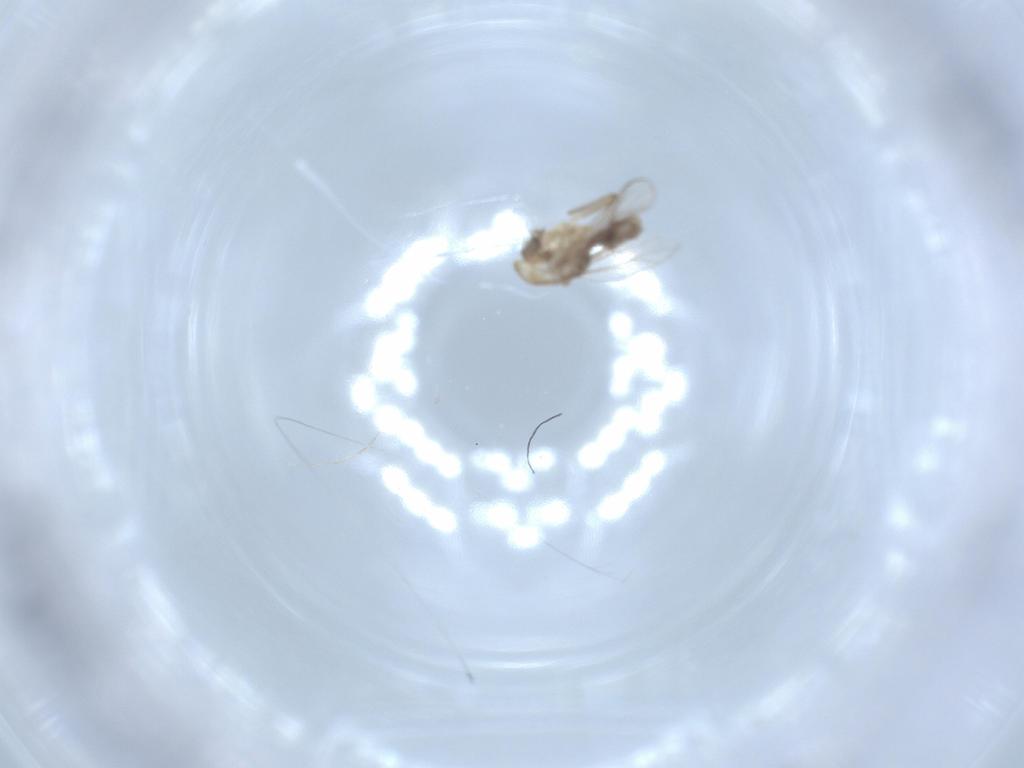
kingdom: Animalia
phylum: Arthropoda
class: Insecta
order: Diptera
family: Chironomidae
